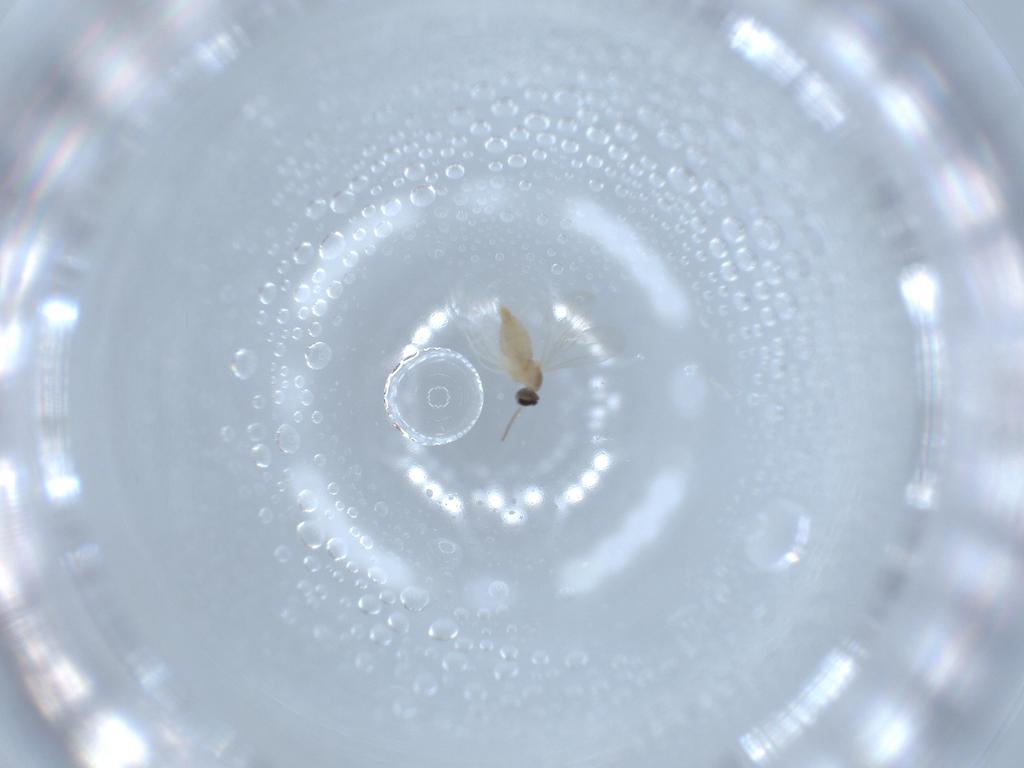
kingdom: Animalia
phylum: Arthropoda
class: Insecta
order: Diptera
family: Cecidomyiidae
